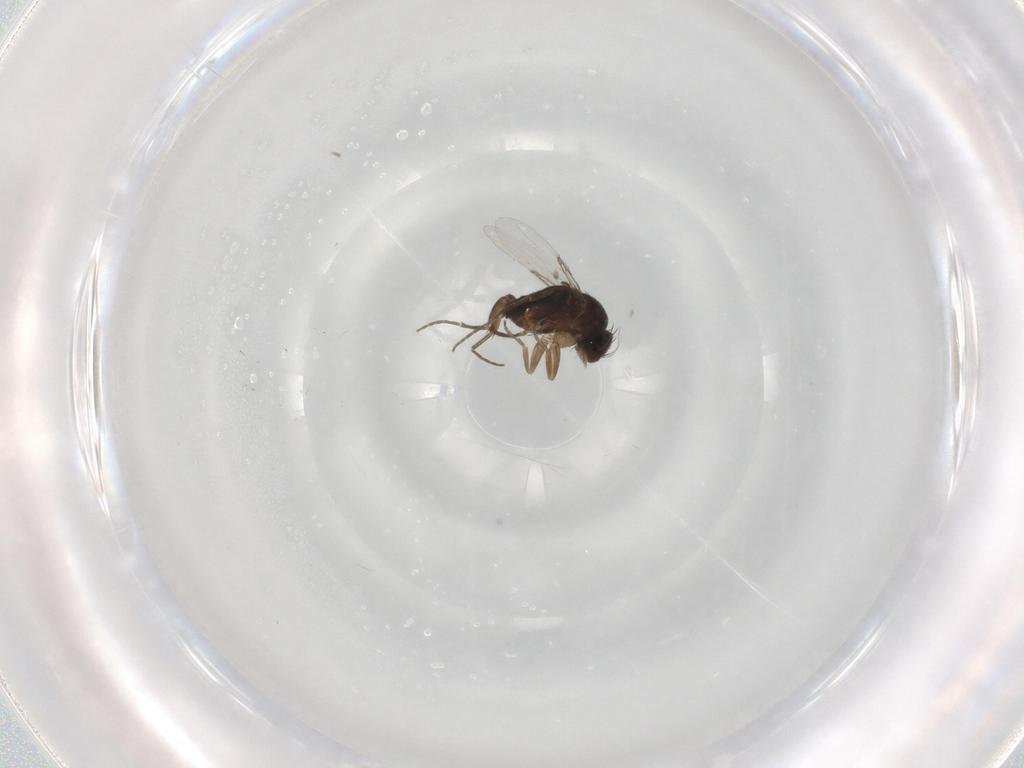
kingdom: Animalia
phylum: Arthropoda
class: Insecta
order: Diptera
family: Phoridae
